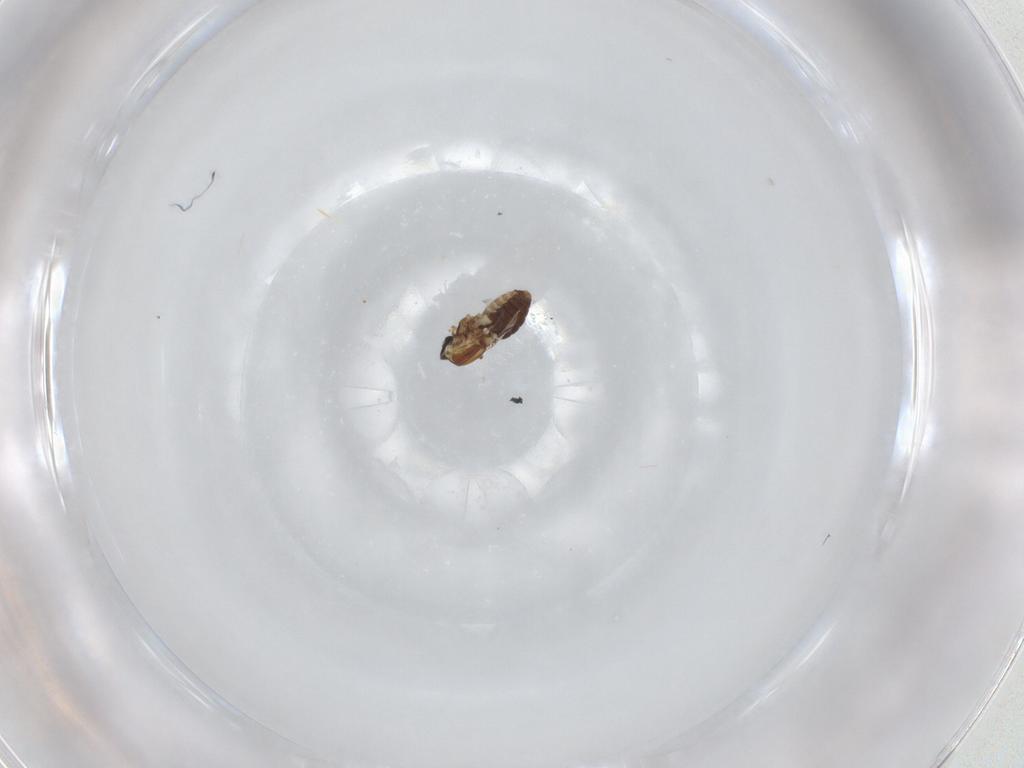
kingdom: Animalia
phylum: Arthropoda
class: Insecta
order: Diptera
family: Ceratopogonidae
